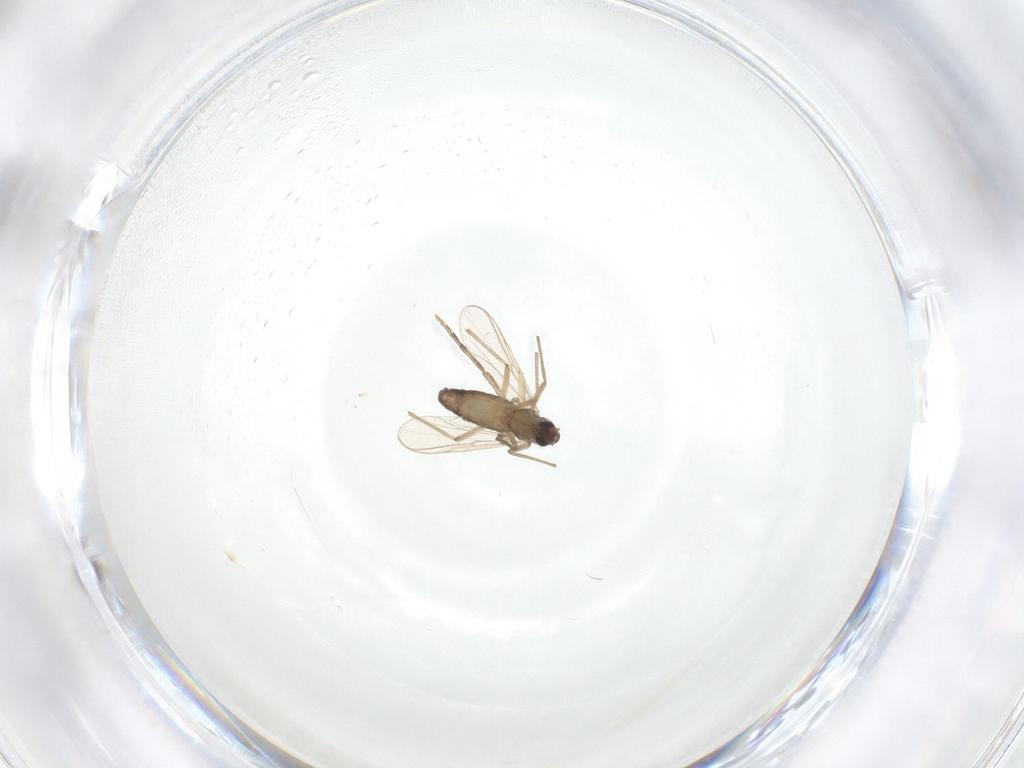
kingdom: Animalia
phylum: Arthropoda
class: Insecta
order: Diptera
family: Chironomidae
